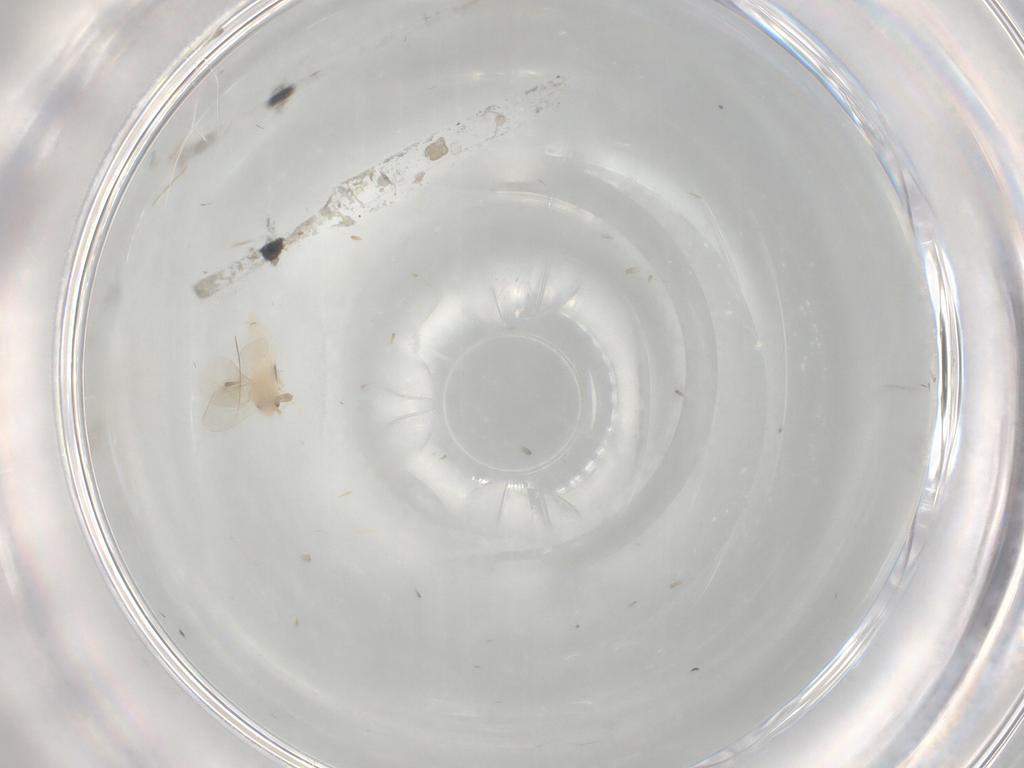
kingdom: Animalia
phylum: Arthropoda
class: Insecta
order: Hemiptera
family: Aleyrodidae
